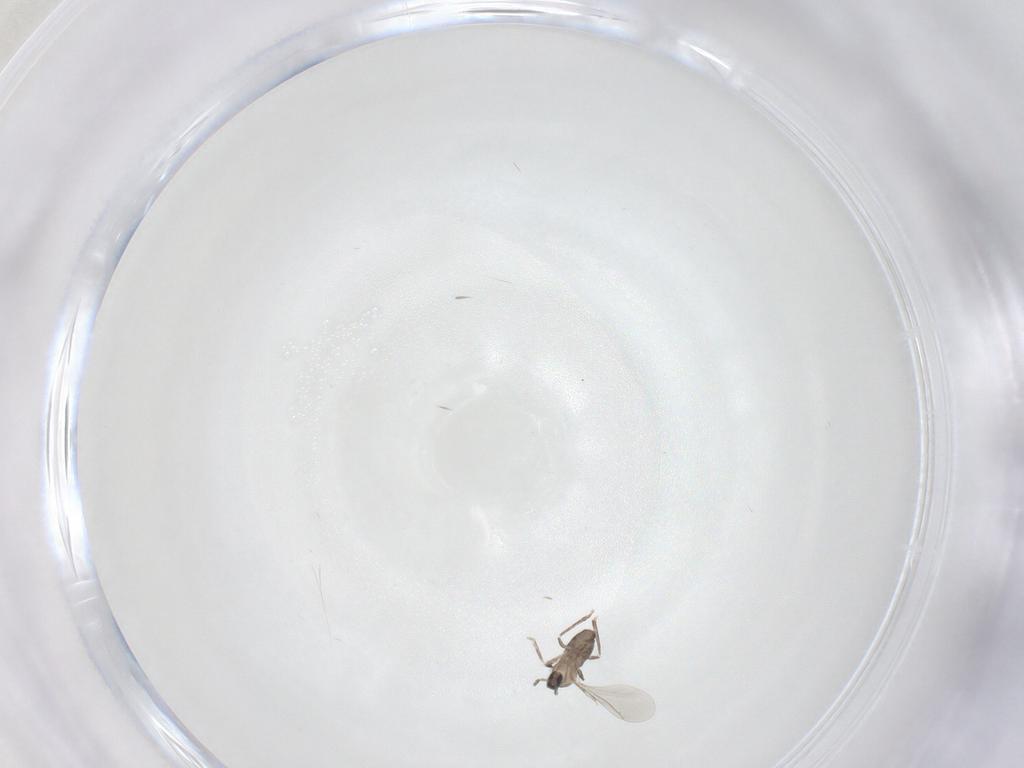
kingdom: Animalia
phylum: Arthropoda
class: Insecta
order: Diptera
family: Cecidomyiidae
